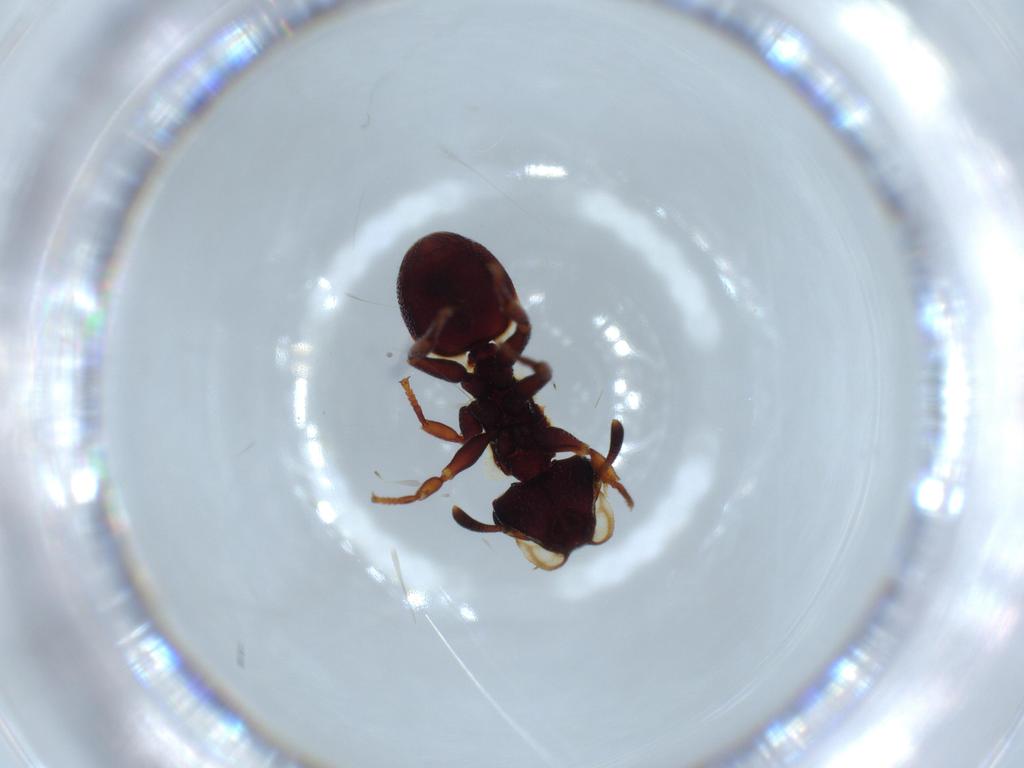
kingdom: Animalia
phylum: Arthropoda
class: Insecta
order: Hymenoptera
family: Formicidae
